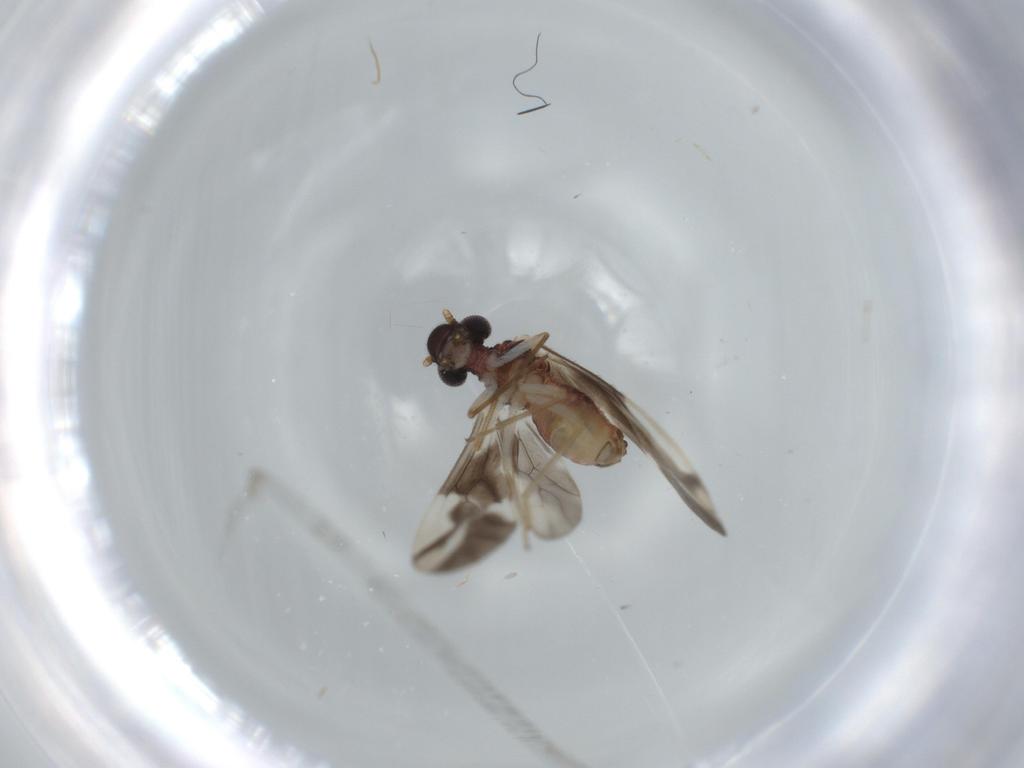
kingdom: Animalia
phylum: Arthropoda
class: Insecta
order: Psocodea
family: Caeciliusidae
